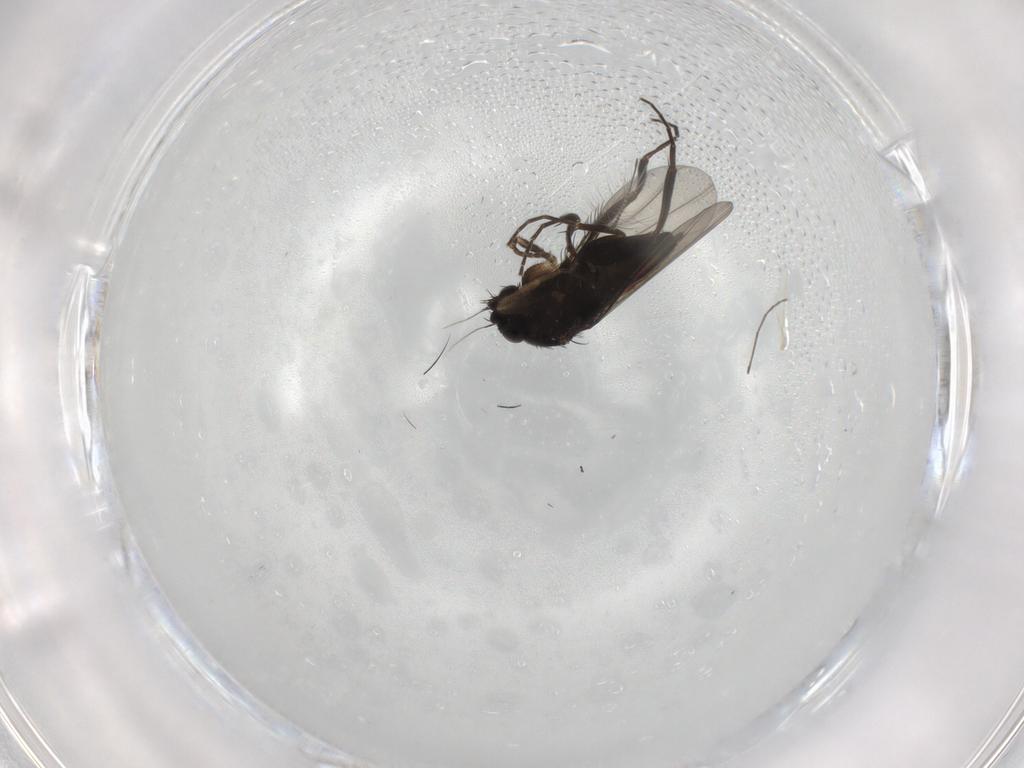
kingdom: Animalia
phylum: Arthropoda
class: Insecta
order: Diptera
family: Phoridae
